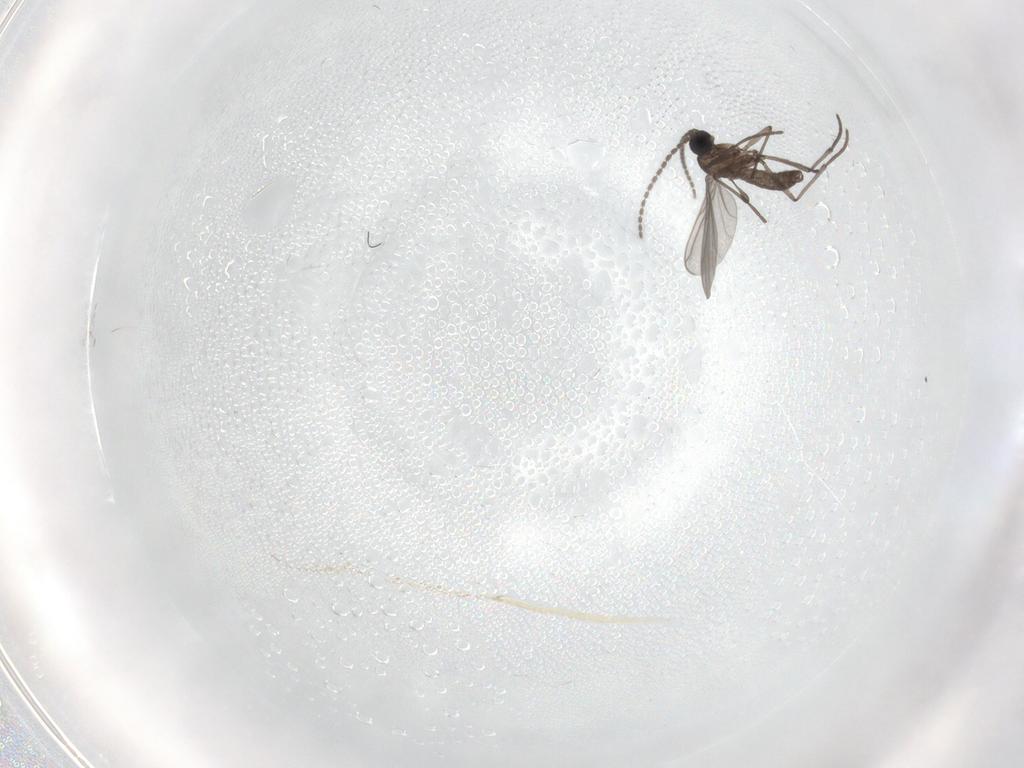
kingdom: Animalia
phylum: Arthropoda
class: Insecta
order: Diptera
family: Sciaridae
